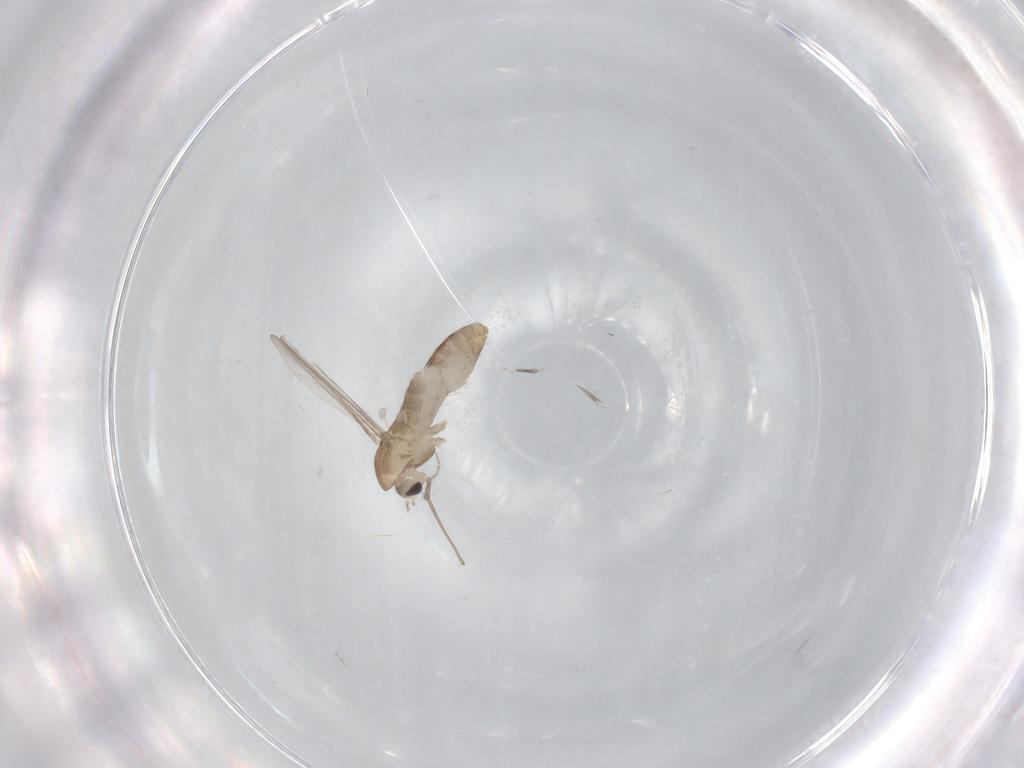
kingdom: Animalia
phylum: Arthropoda
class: Insecta
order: Diptera
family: Chironomidae
